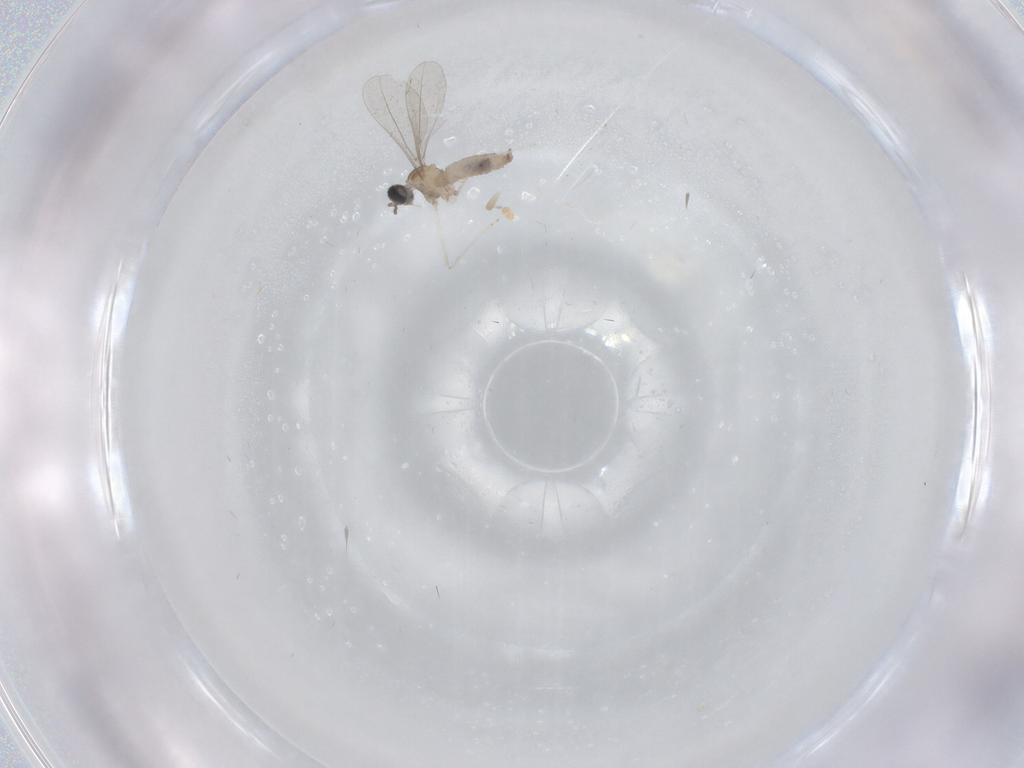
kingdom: Animalia
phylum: Arthropoda
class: Insecta
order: Diptera
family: Cecidomyiidae
